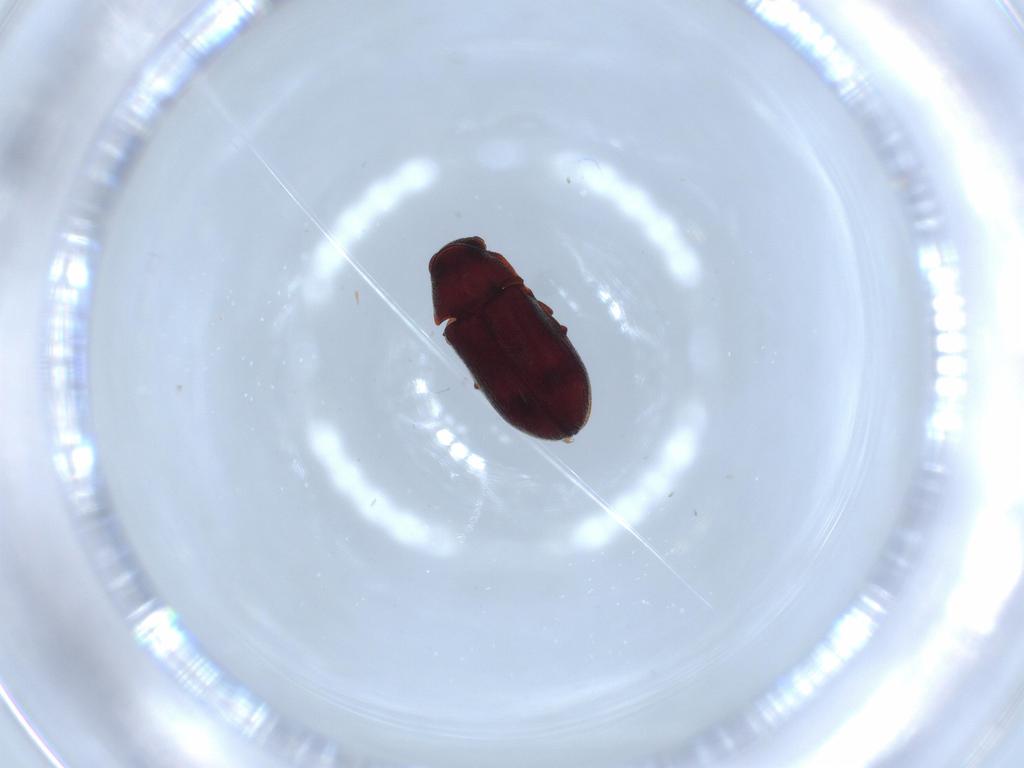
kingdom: Animalia
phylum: Arthropoda
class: Insecta
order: Coleoptera
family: Ptinidae
